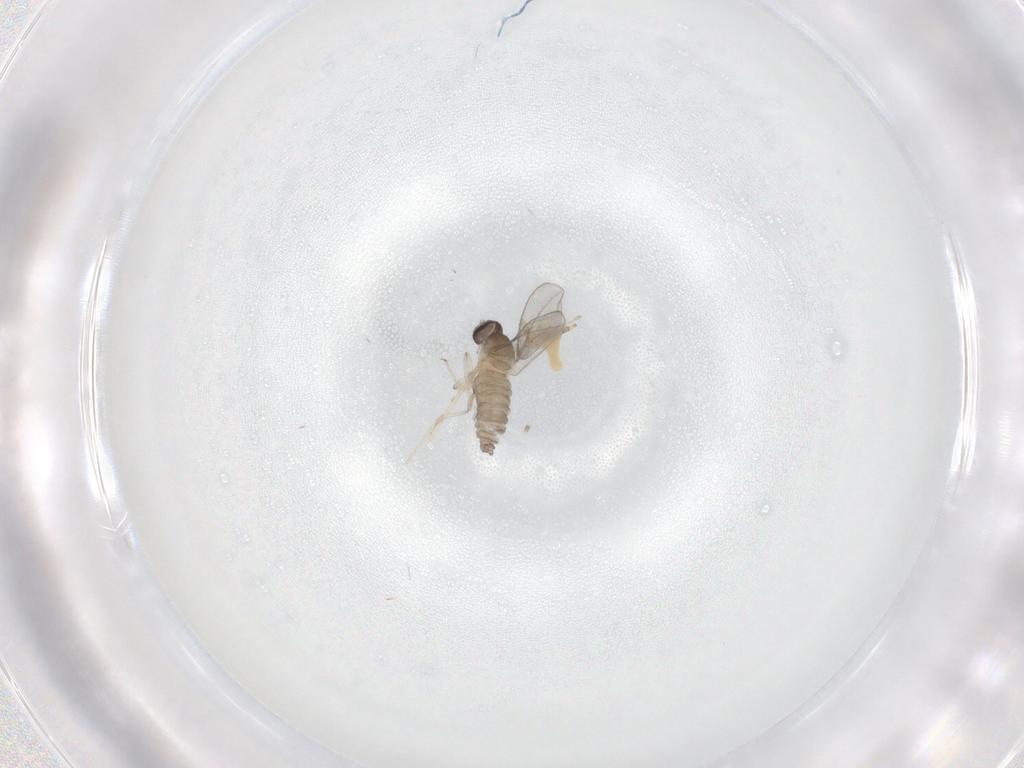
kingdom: Animalia
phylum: Arthropoda
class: Insecta
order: Diptera
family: Cecidomyiidae
